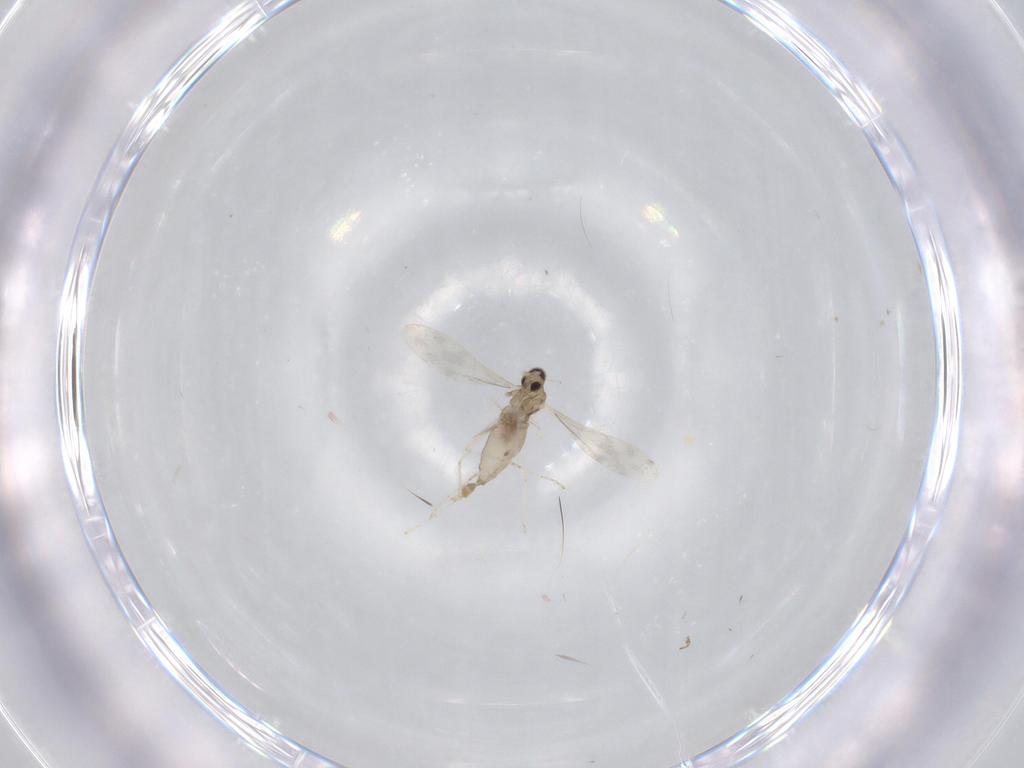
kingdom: Animalia
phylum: Arthropoda
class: Insecta
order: Diptera
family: Cecidomyiidae
